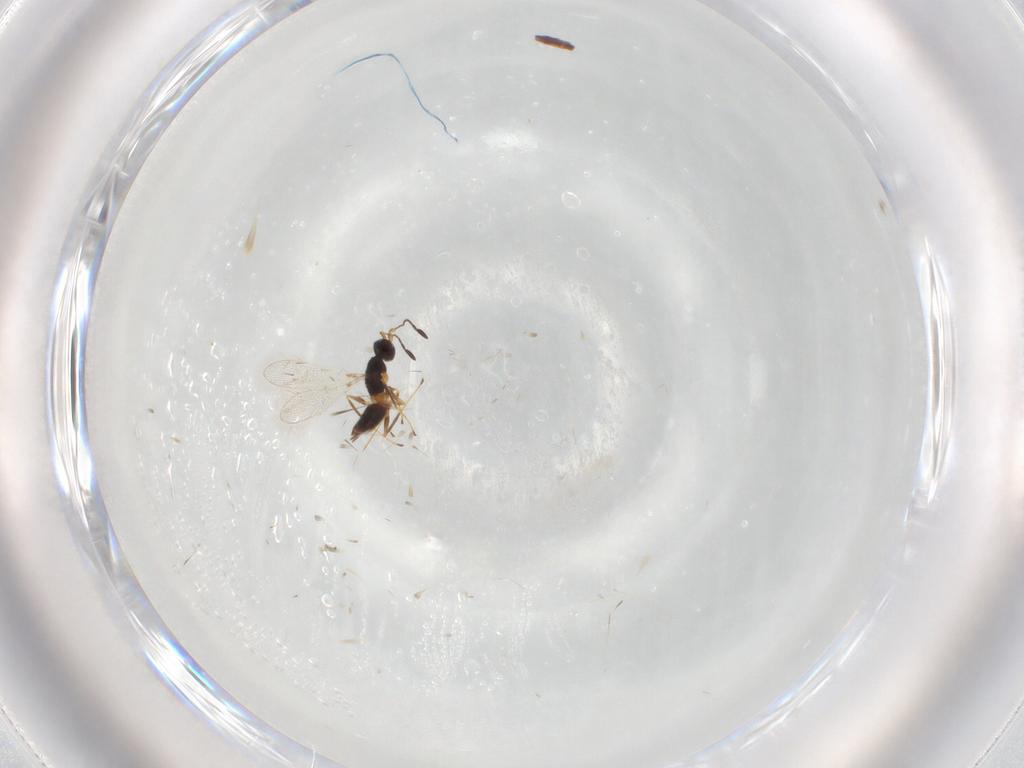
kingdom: Animalia
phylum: Arthropoda
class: Insecta
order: Hymenoptera
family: Mymaridae
